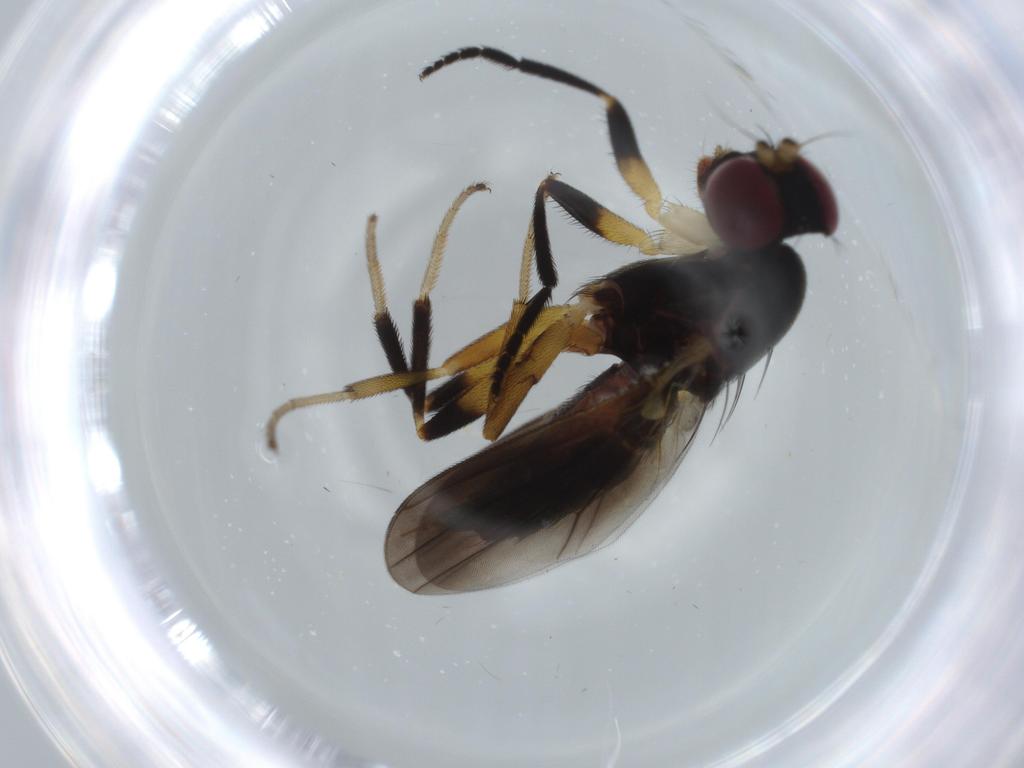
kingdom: Animalia
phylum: Arthropoda
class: Insecta
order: Diptera
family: Clusiidae
